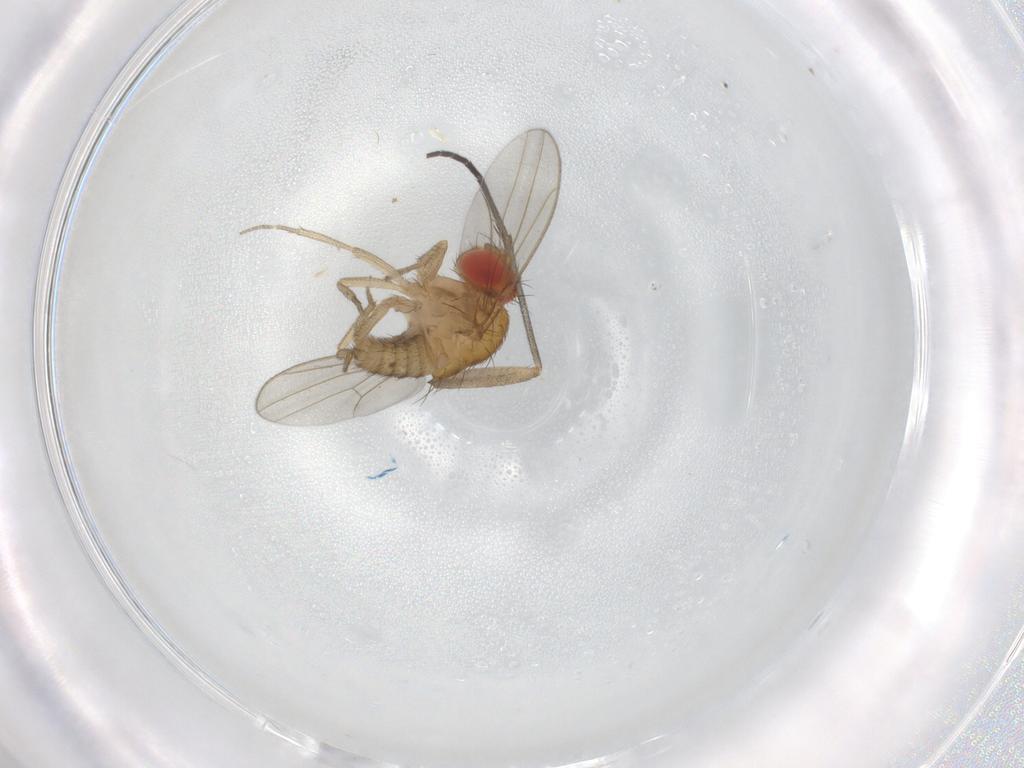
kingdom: Animalia
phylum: Arthropoda
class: Insecta
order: Diptera
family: Drosophilidae
